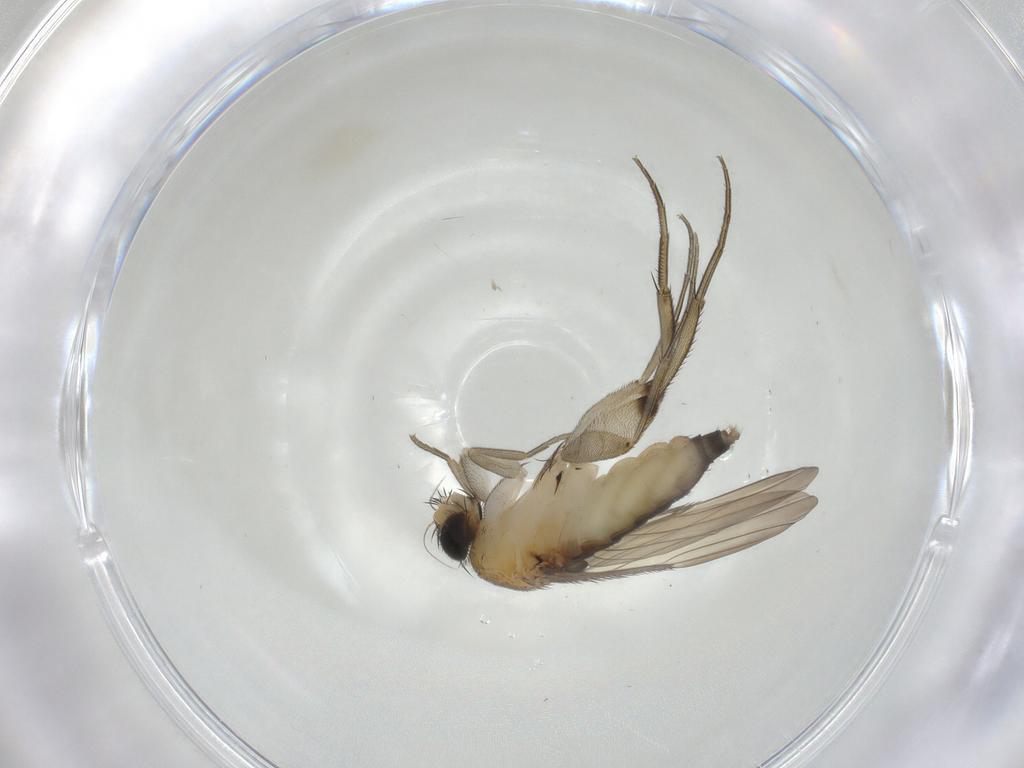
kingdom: Animalia
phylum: Arthropoda
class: Insecta
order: Diptera
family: Phoridae
